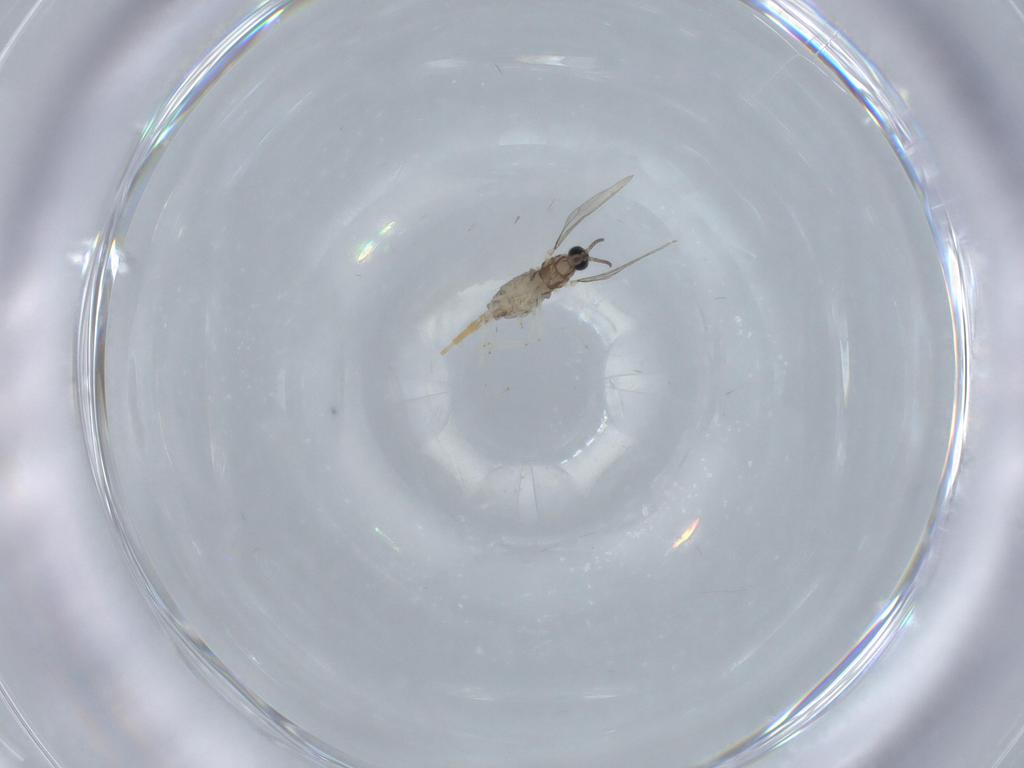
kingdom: Animalia
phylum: Arthropoda
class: Insecta
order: Diptera
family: Cecidomyiidae
